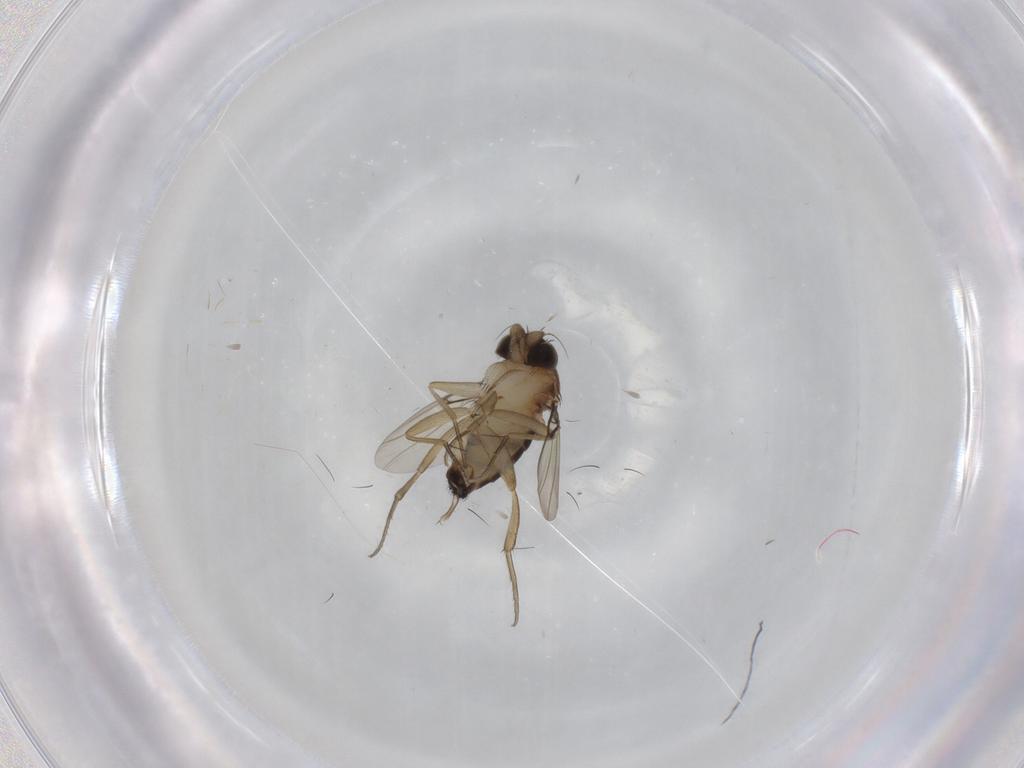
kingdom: Animalia
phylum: Arthropoda
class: Insecta
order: Diptera
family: Phoridae
